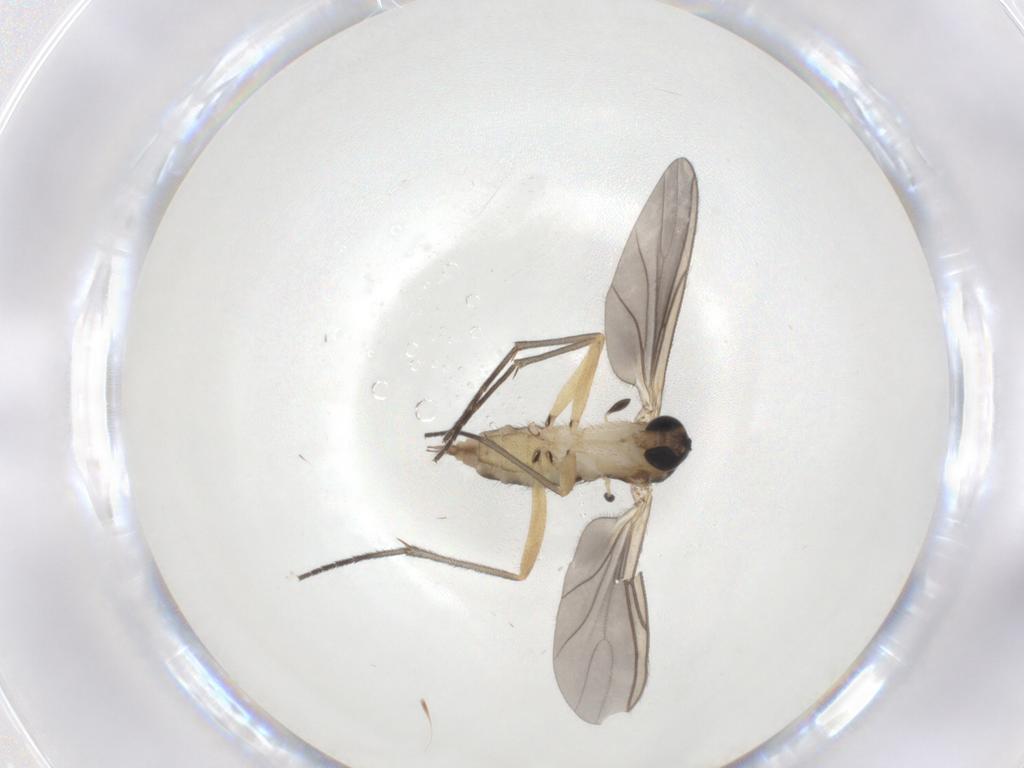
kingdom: Animalia
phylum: Arthropoda
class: Insecta
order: Diptera
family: Sciaridae
